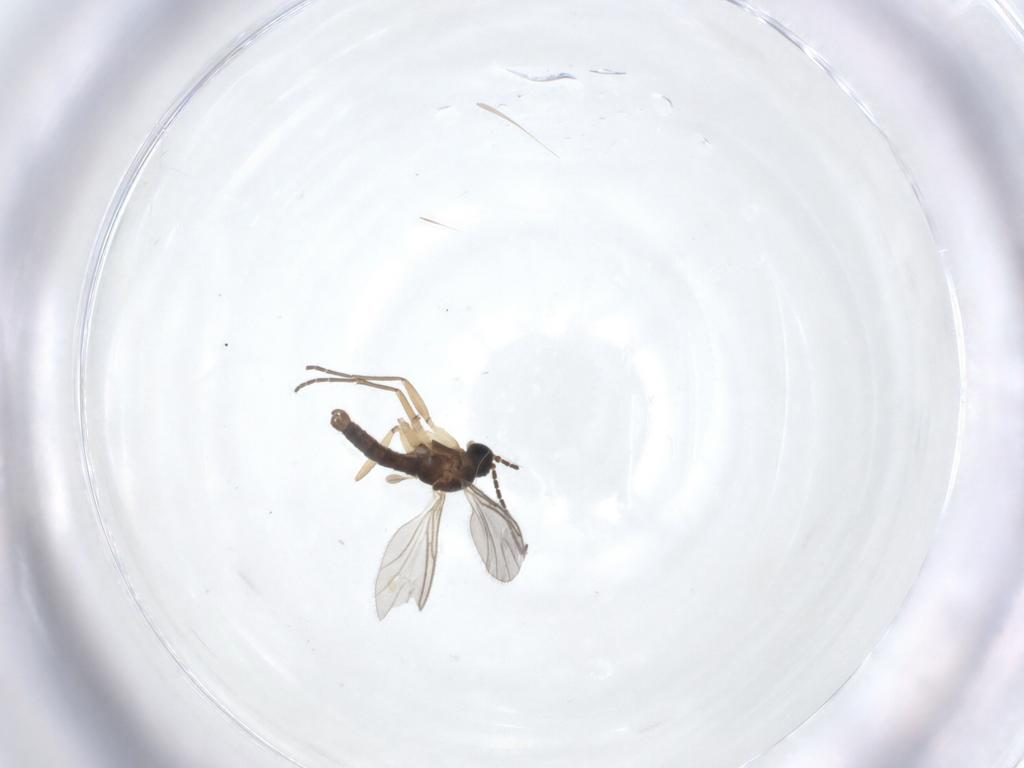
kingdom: Animalia
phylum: Arthropoda
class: Insecta
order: Diptera
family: Sciaridae
